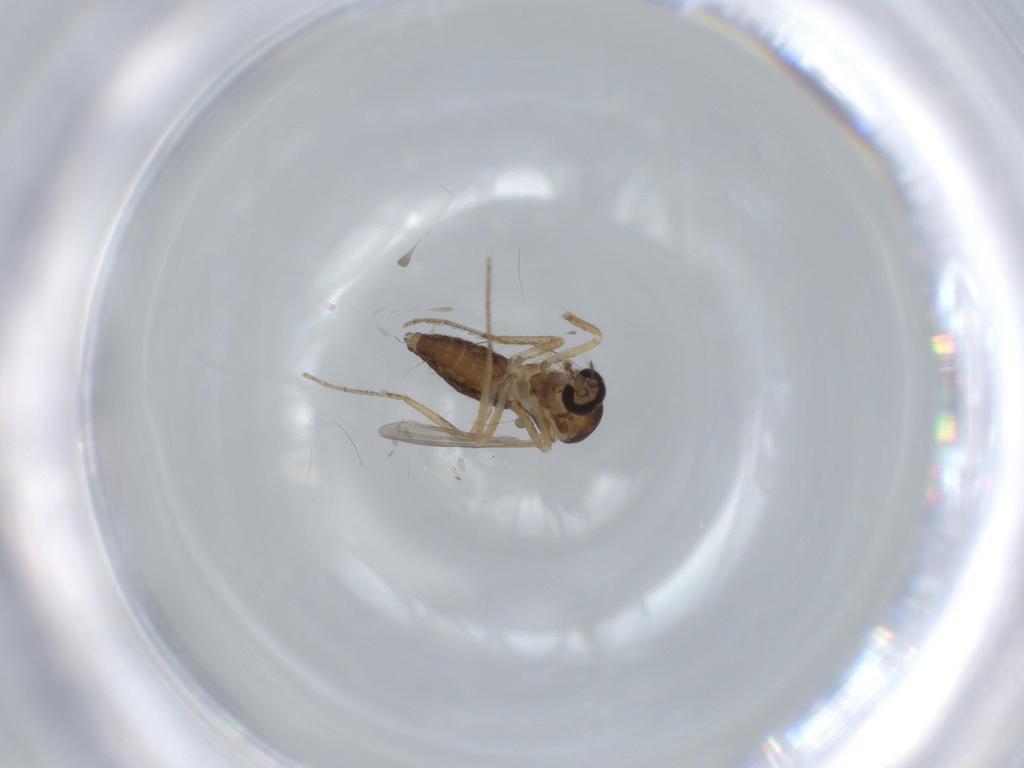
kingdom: Animalia
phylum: Arthropoda
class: Insecta
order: Diptera
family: Ceratopogonidae
